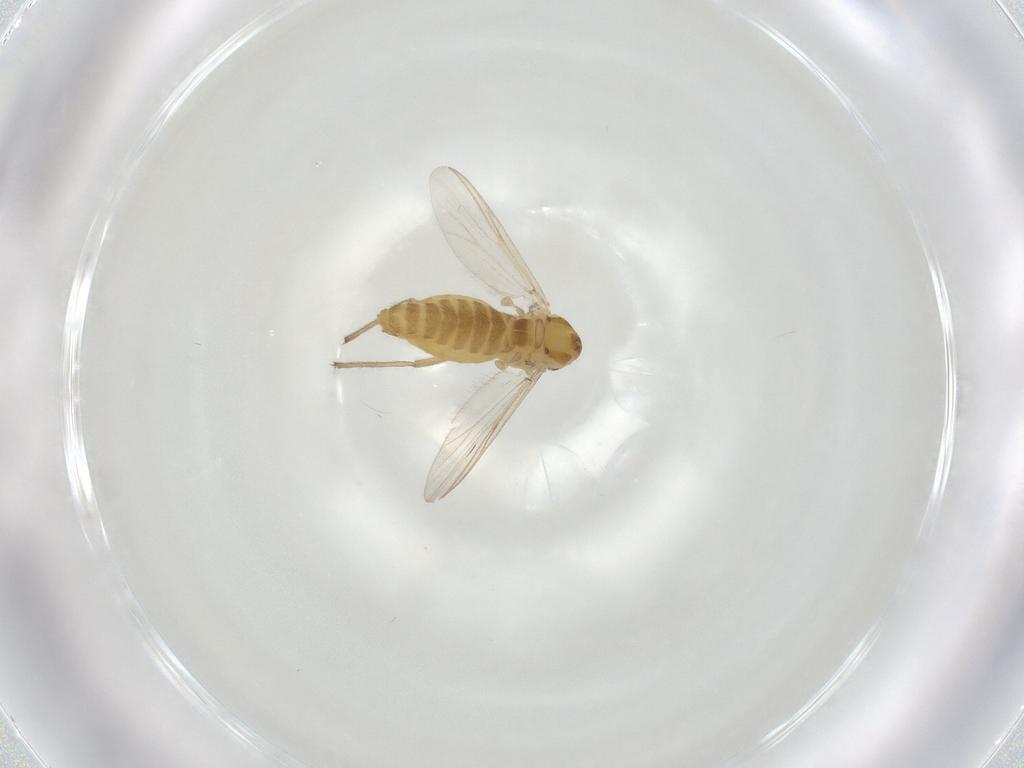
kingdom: Animalia
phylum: Arthropoda
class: Insecta
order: Diptera
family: Chironomidae
